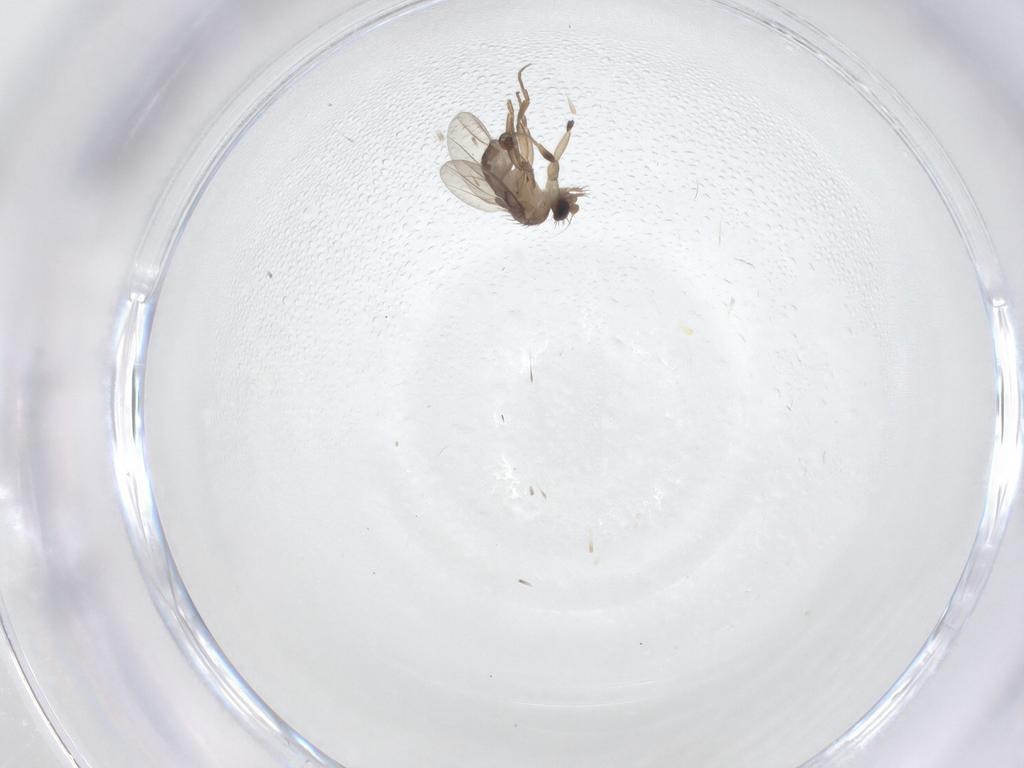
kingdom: Animalia
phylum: Arthropoda
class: Insecta
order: Diptera
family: Phoridae
